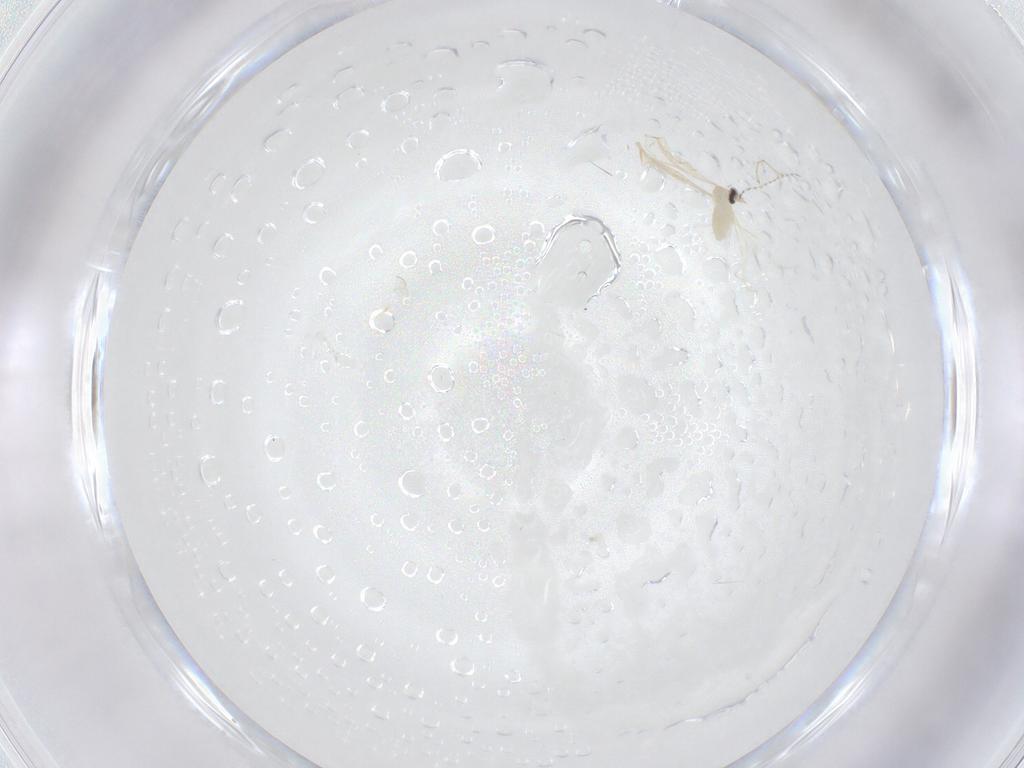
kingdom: Animalia
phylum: Arthropoda
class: Insecta
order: Diptera
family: Cecidomyiidae
